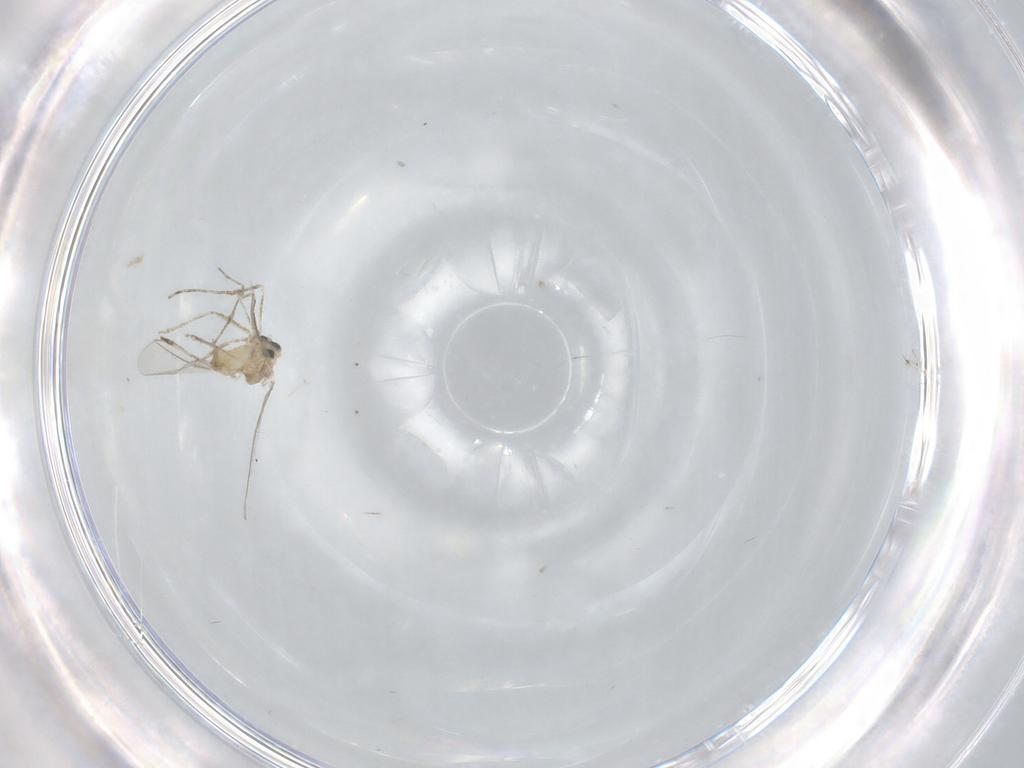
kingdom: Animalia
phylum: Arthropoda
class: Insecta
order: Diptera
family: Cecidomyiidae
